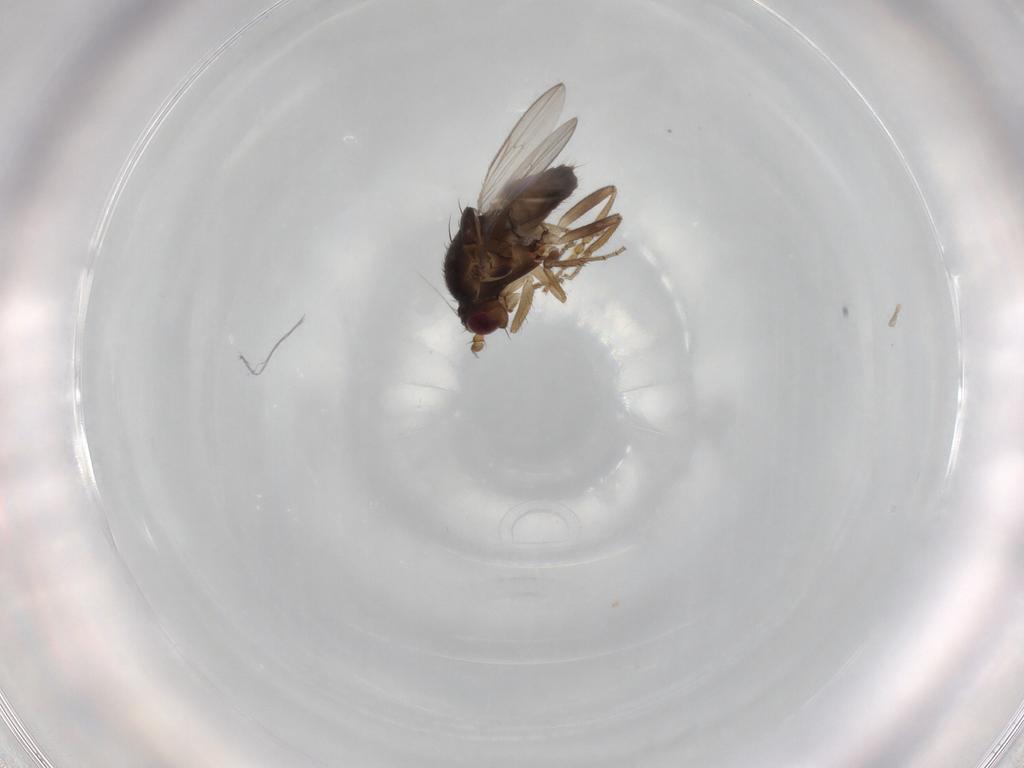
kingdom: Animalia
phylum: Arthropoda
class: Insecta
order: Diptera
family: Sphaeroceridae
